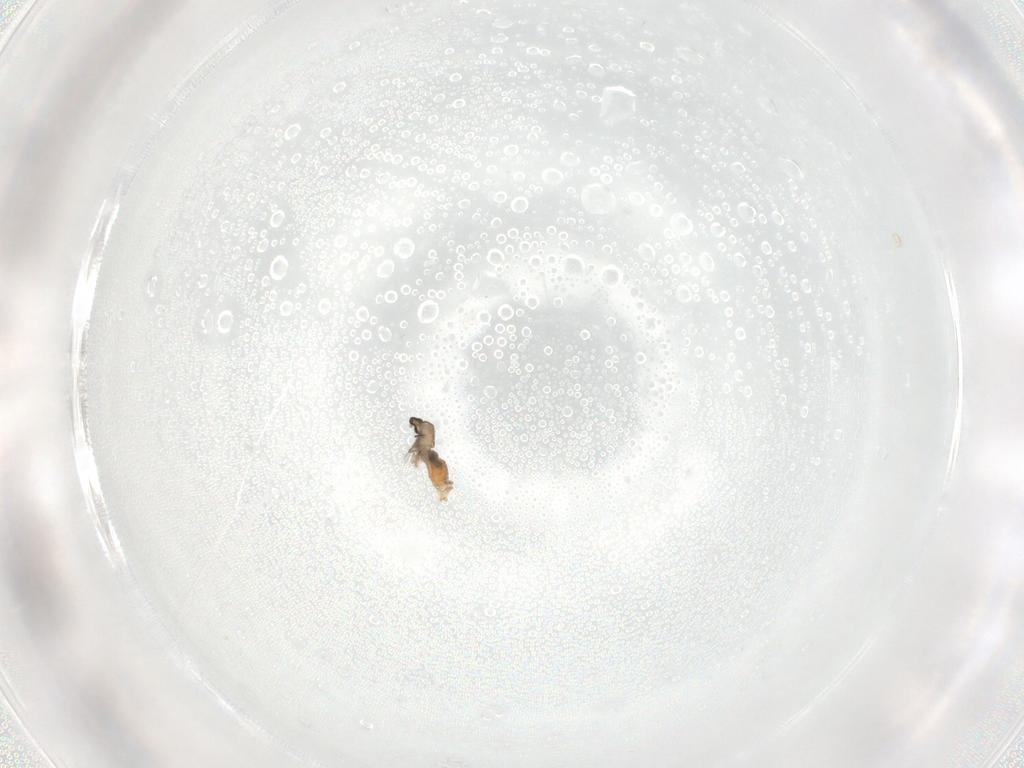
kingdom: Animalia
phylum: Arthropoda
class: Insecta
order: Diptera
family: Cecidomyiidae
